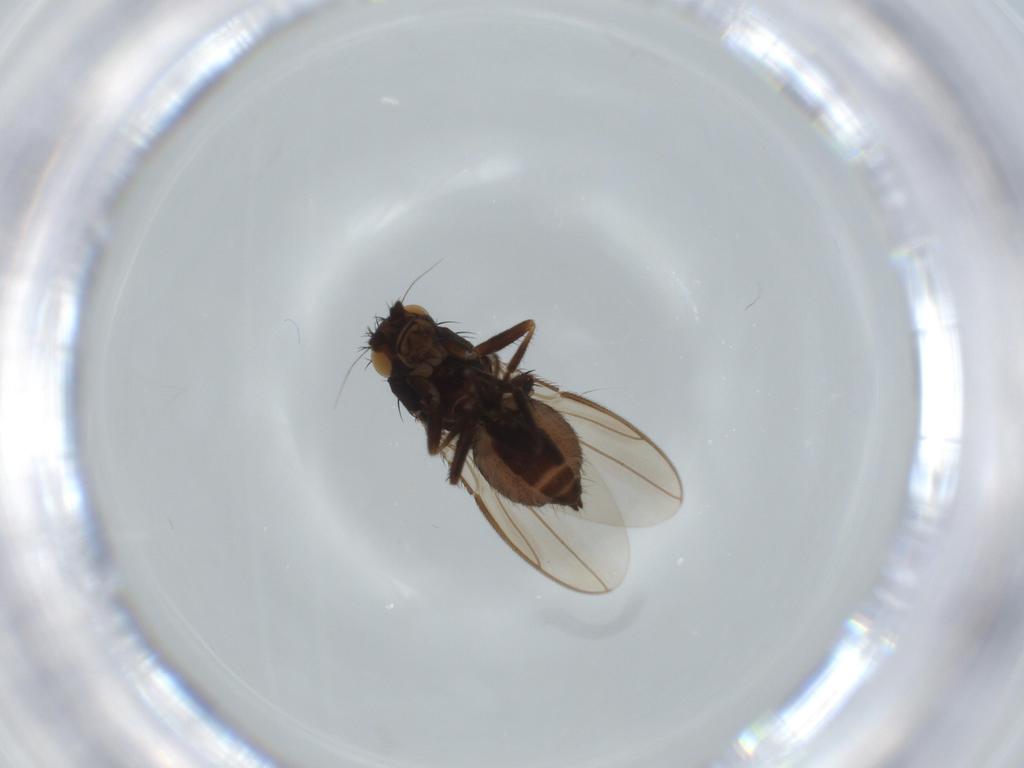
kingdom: Animalia
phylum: Arthropoda
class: Insecta
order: Diptera
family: Sphaeroceridae
